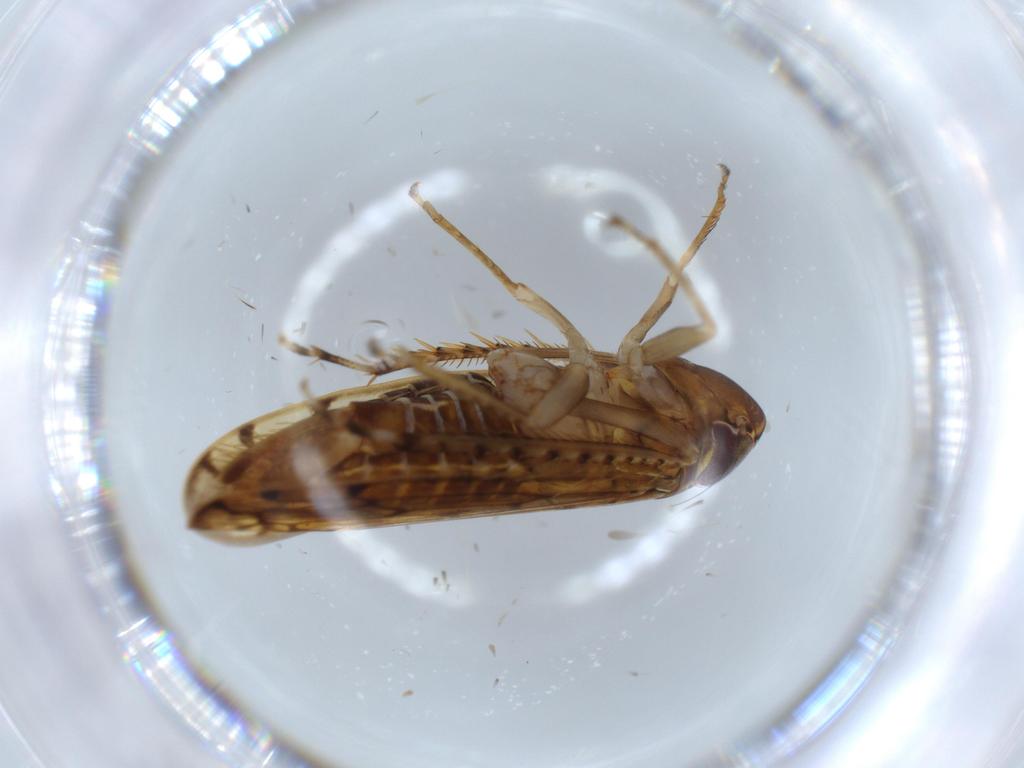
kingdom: Animalia
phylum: Arthropoda
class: Insecta
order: Hemiptera
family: Cicadellidae
